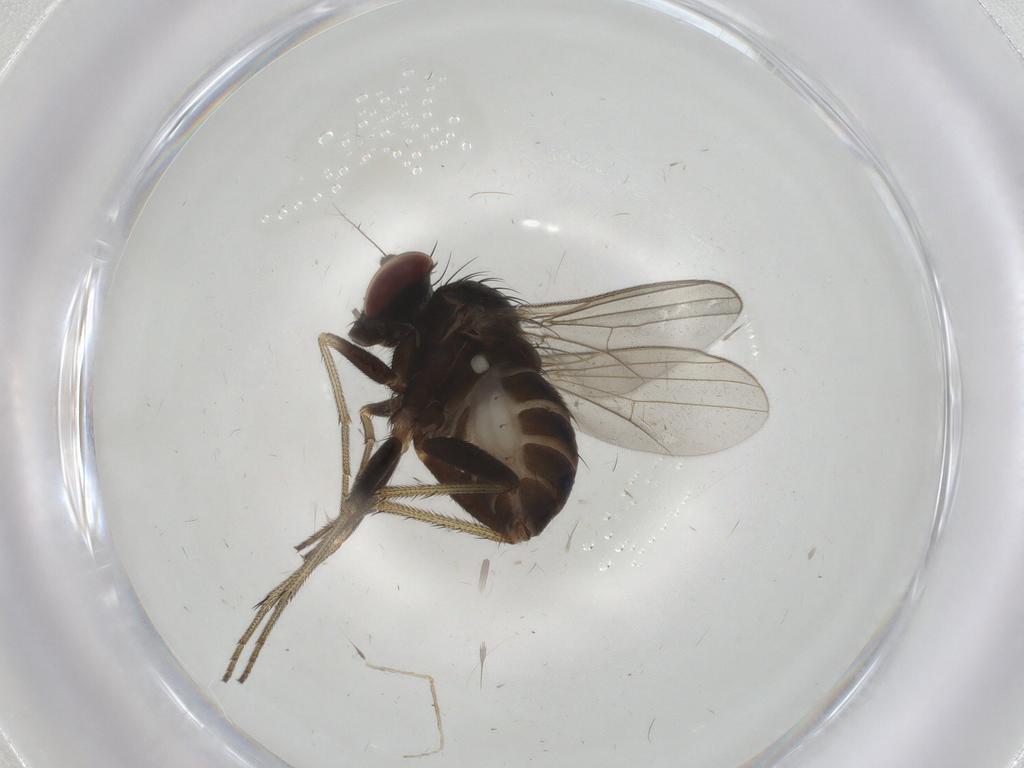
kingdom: Animalia
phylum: Arthropoda
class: Insecta
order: Diptera
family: Dolichopodidae
